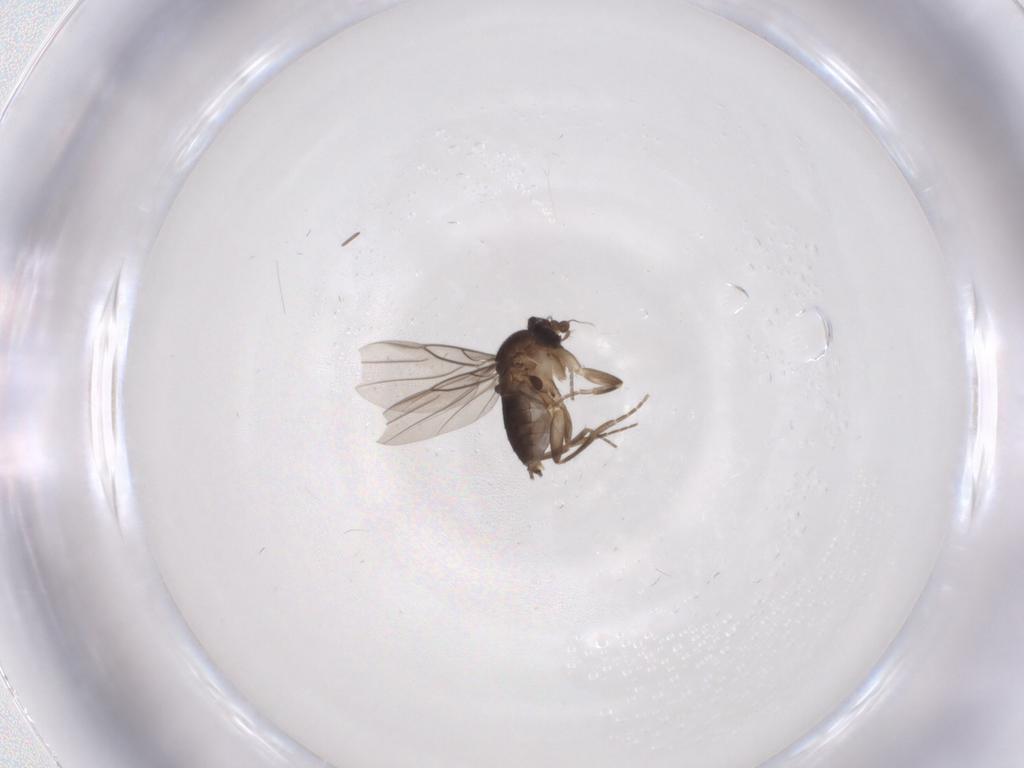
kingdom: Animalia
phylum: Arthropoda
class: Insecta
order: Diptera
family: Phoridae
